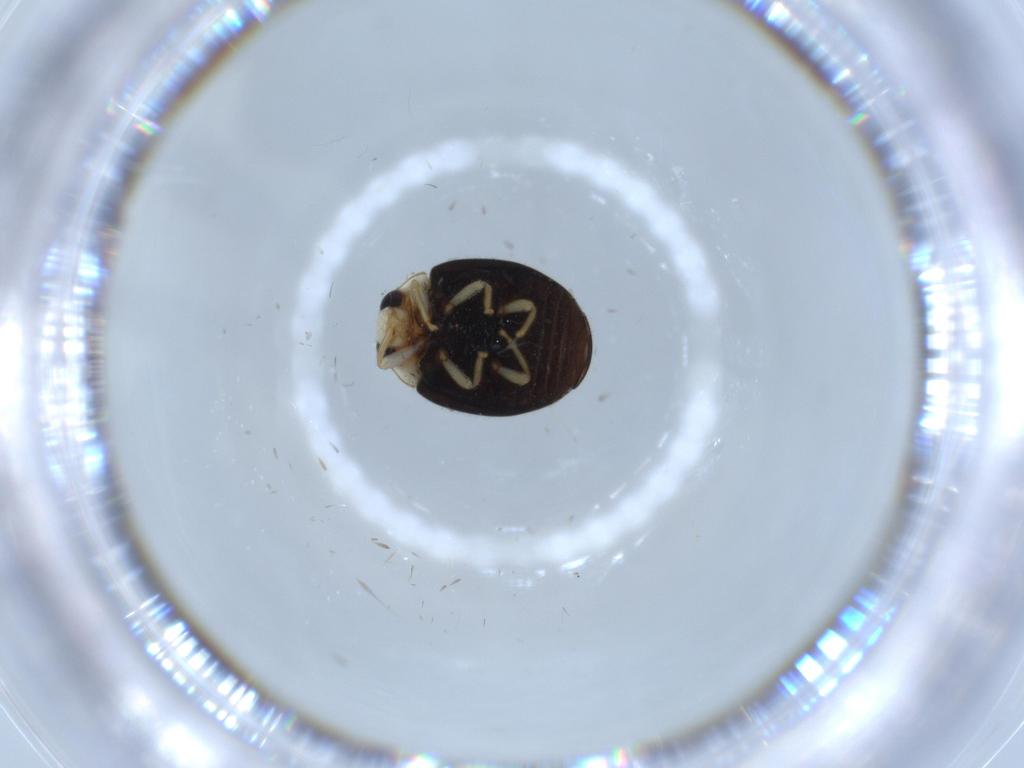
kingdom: Animalia
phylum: Arthropoda
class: Insecta
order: Coleoptera
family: Coccinellidae
